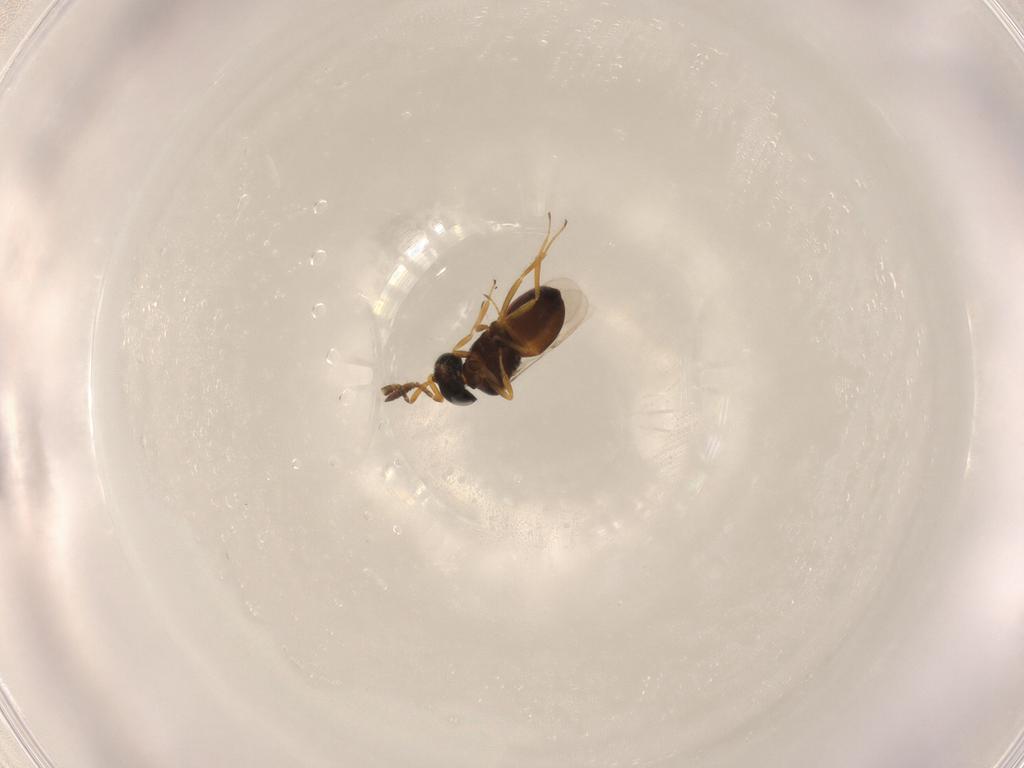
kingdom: Animalia
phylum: Arthropoda
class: Insecta
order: Hymenoptera
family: Scelionidae
